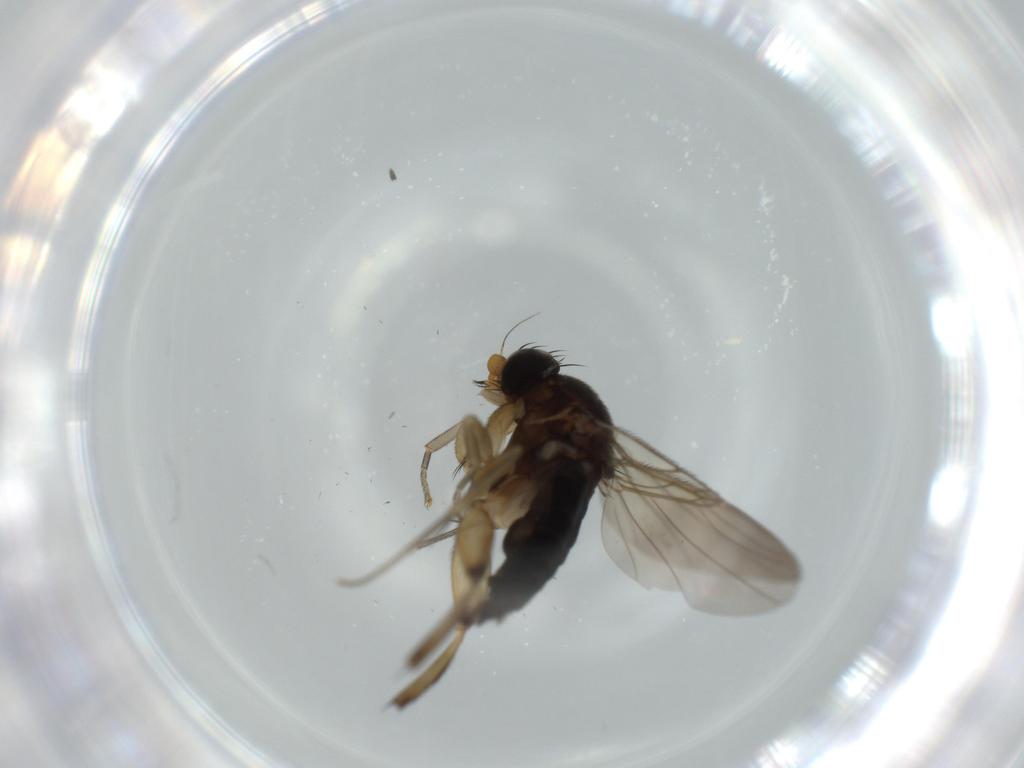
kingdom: Animalia
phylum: Arthropoda
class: Insecta
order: Diptera
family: Phoridae
